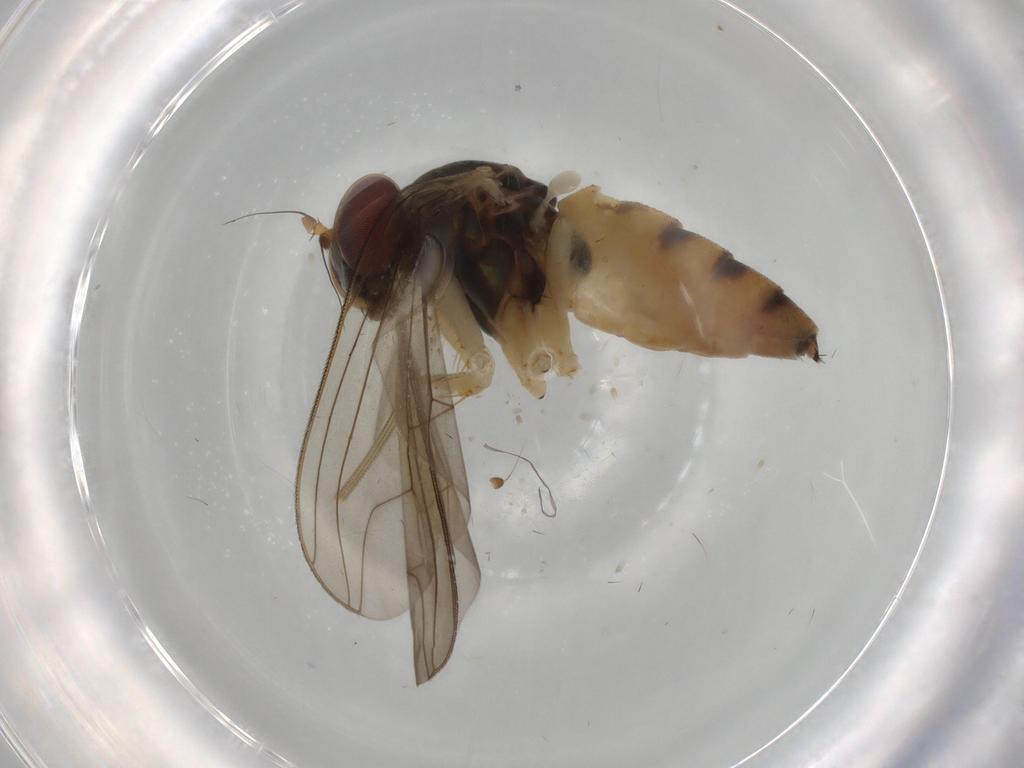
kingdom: Animalia
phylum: Arthropoda
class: Insecta
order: Diptera
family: Dolichopodidae
